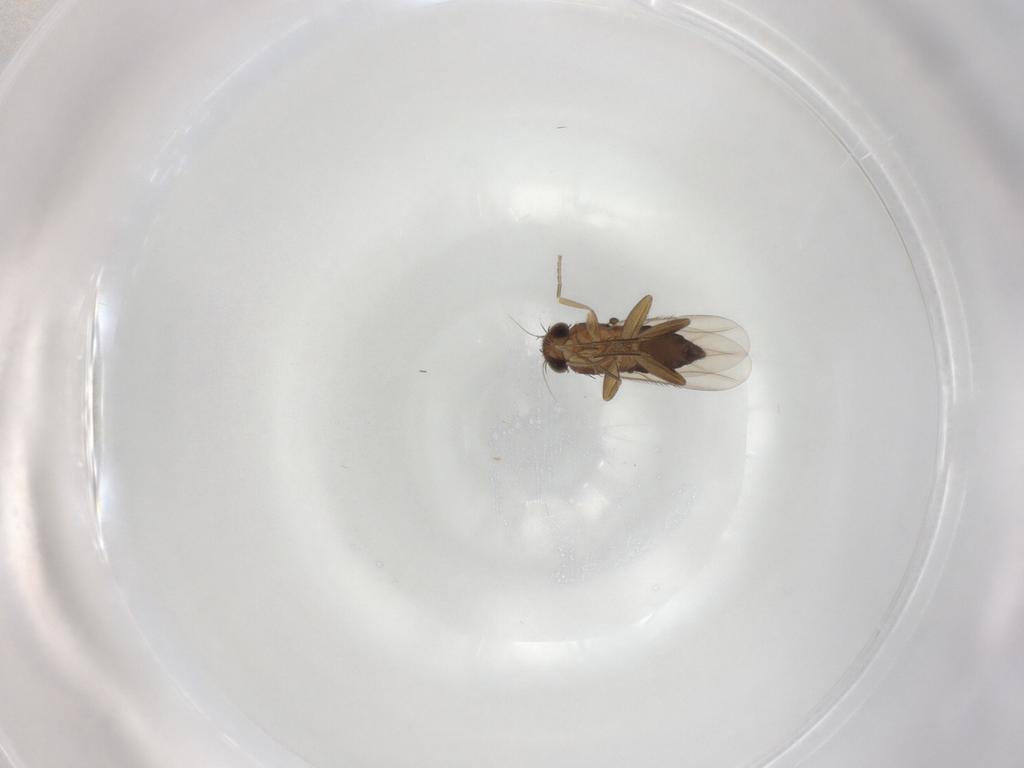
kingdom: Animalia
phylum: Arthropoda
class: Insecta
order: Diptera
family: Phoridae
